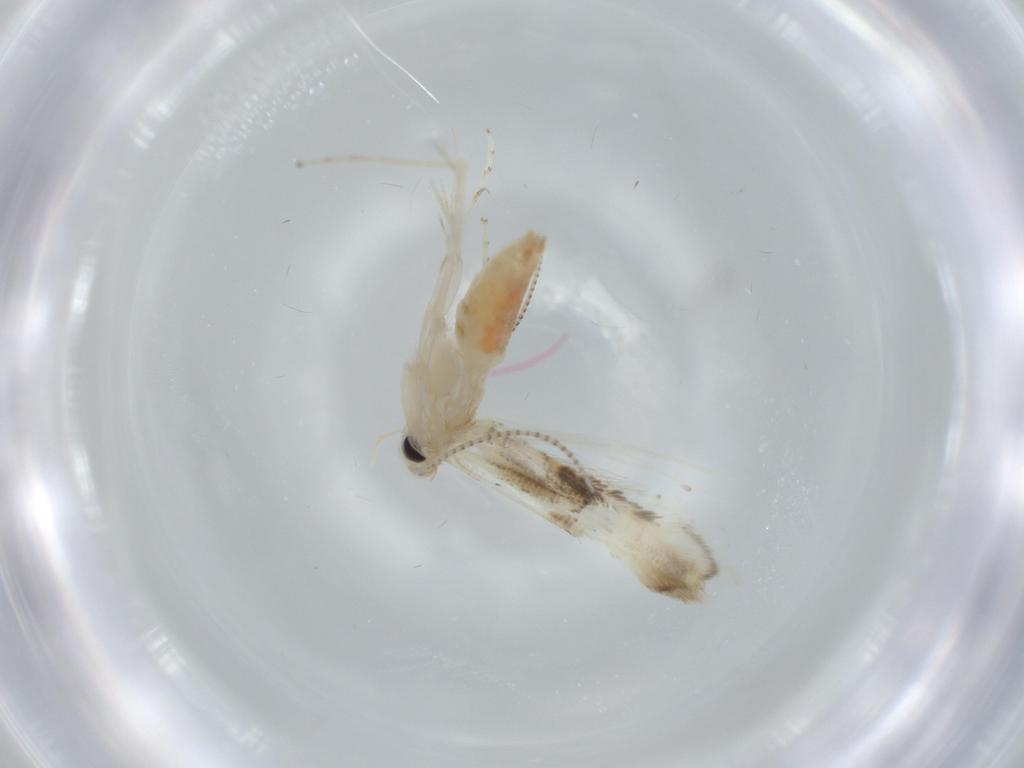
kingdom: Animalia
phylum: Arthropoda
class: Insecta
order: Lepidoptera
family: Gracillariidae
